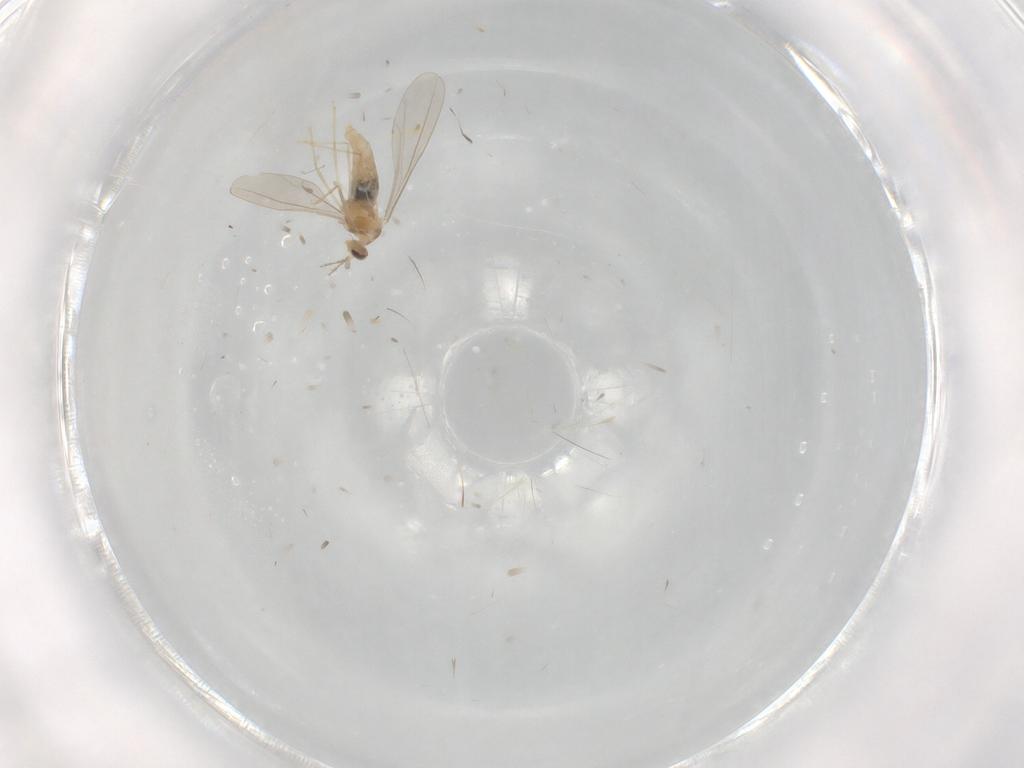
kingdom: Animalia
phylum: Arthropoda
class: Insecta
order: Diptera
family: Cecidomyiidae
